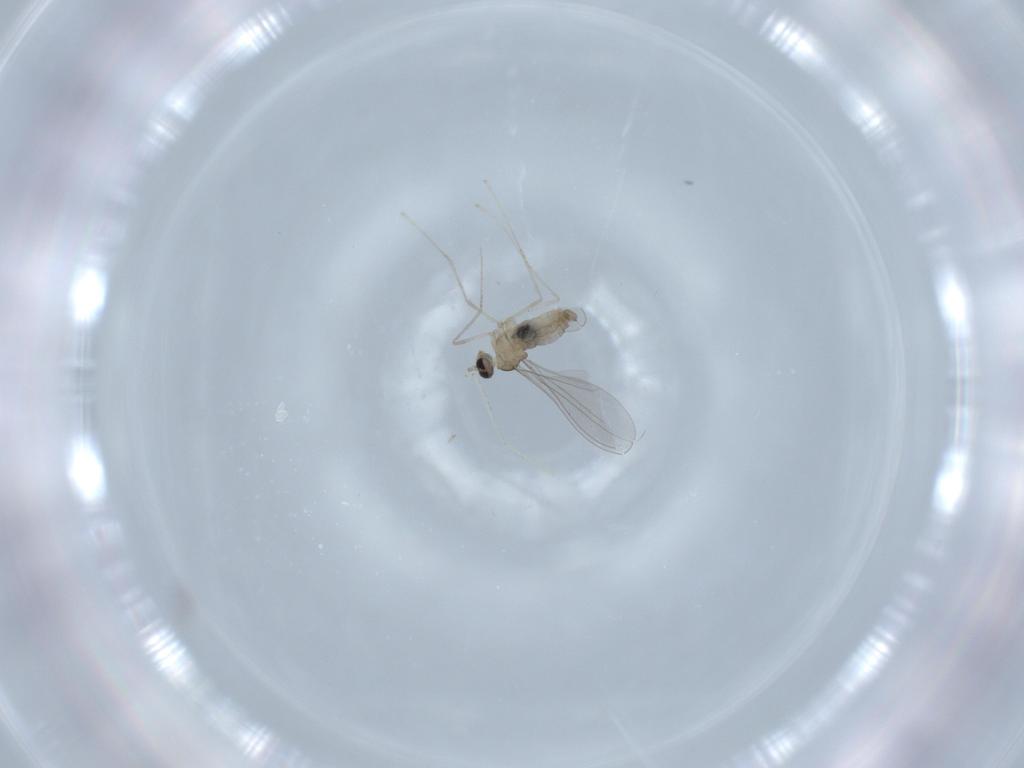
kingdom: Animalia
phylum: Arthropoda
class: Insecta
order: Diptera
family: Cecidomyiidae
